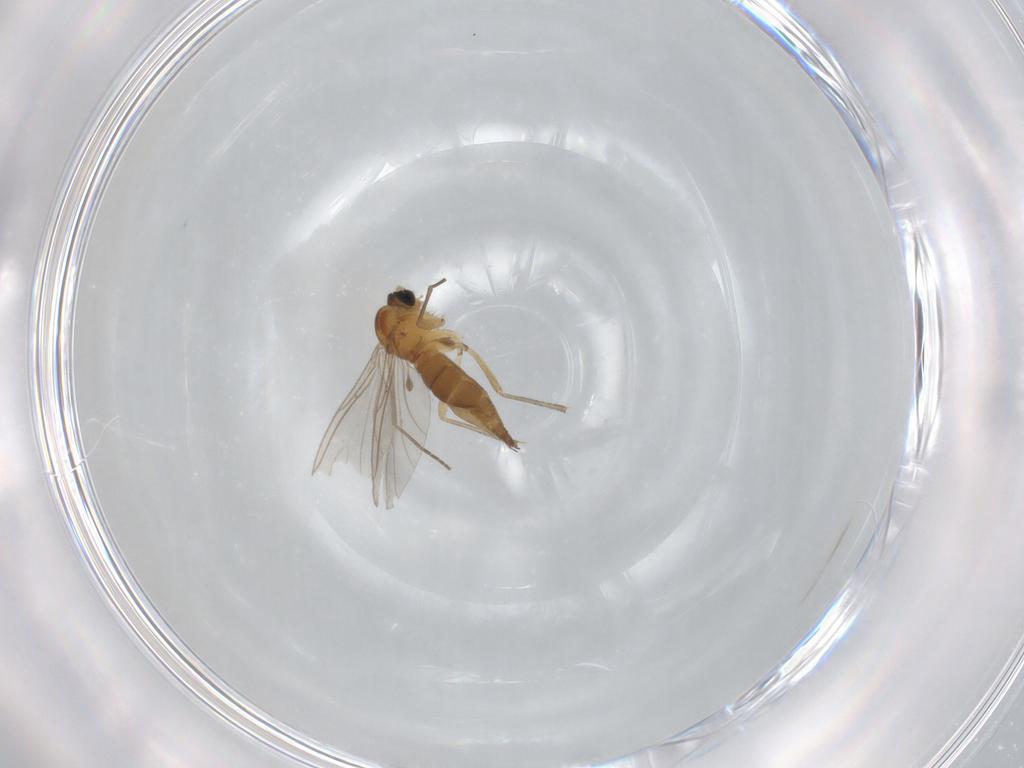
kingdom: Animalia
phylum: Arthropoda
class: Insecta
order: Diptera
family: Sciaridae
